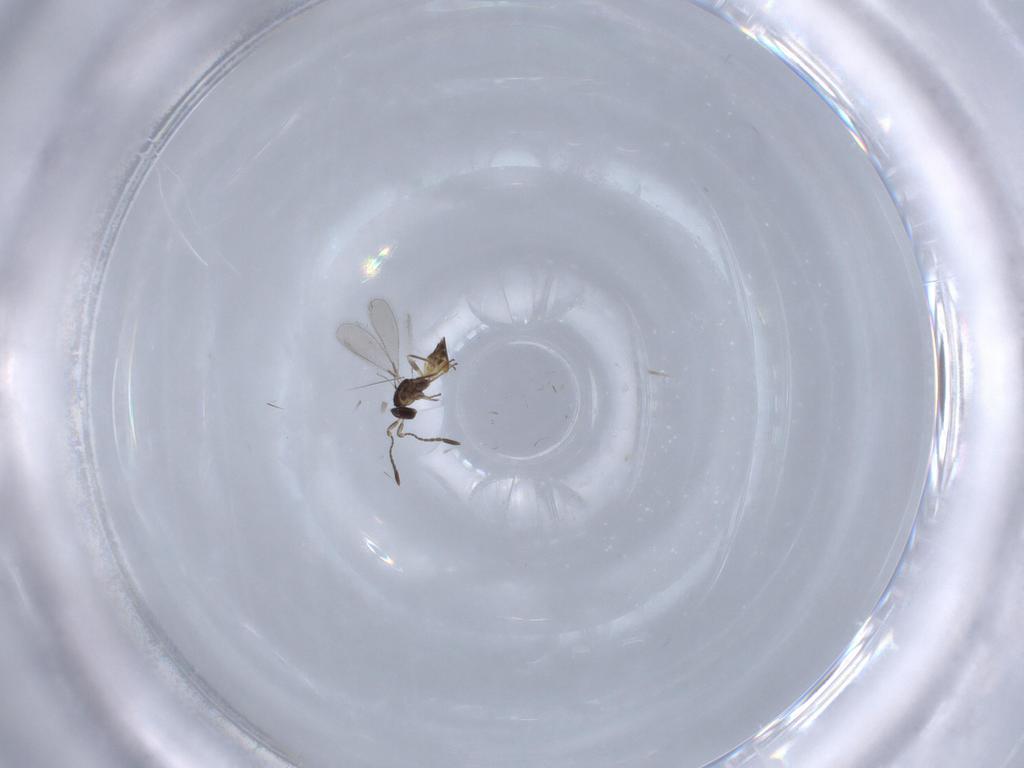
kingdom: Animalia
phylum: Arthropoda
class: Insecta
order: Hymenoptera
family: Mymaridae
